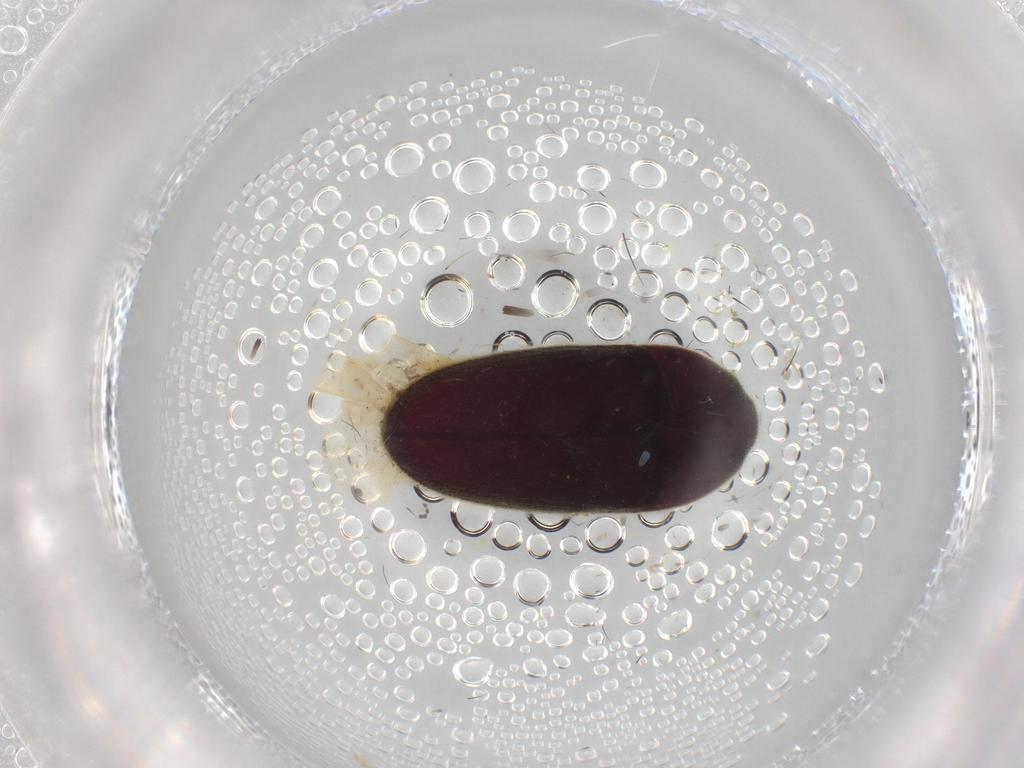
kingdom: Animalia
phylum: Arthropoda
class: Insecta
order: Coleoptera
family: Throscidae
